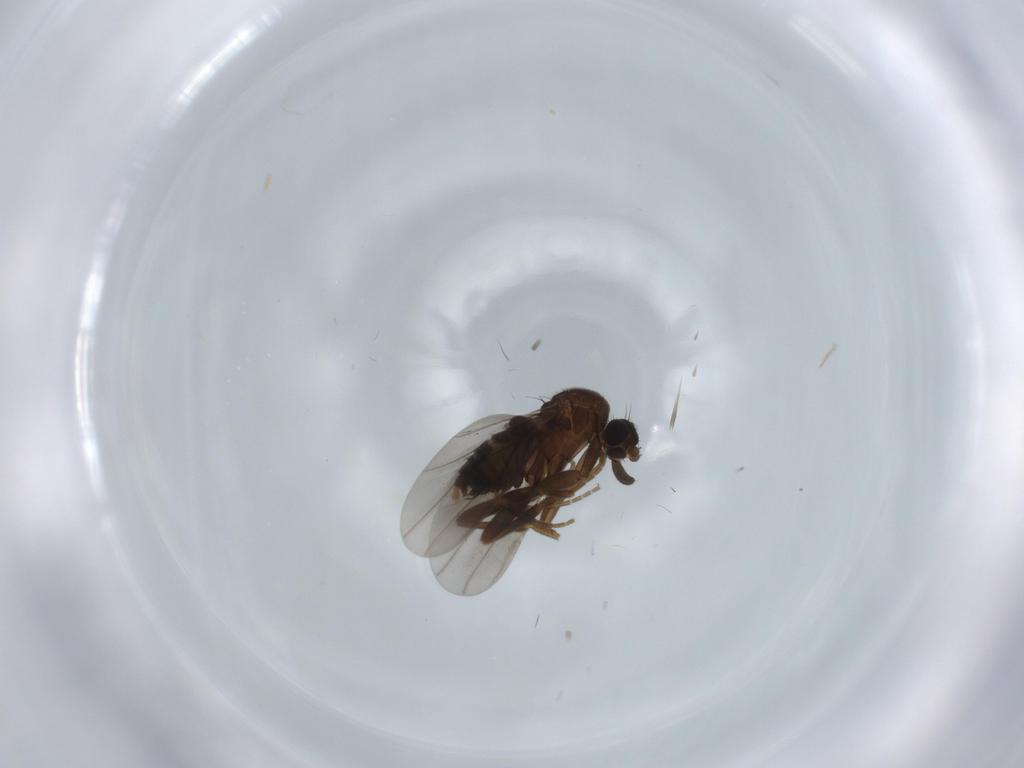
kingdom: Animalia
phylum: Arthropoda
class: Insecta
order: Diptera
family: Phoridae
